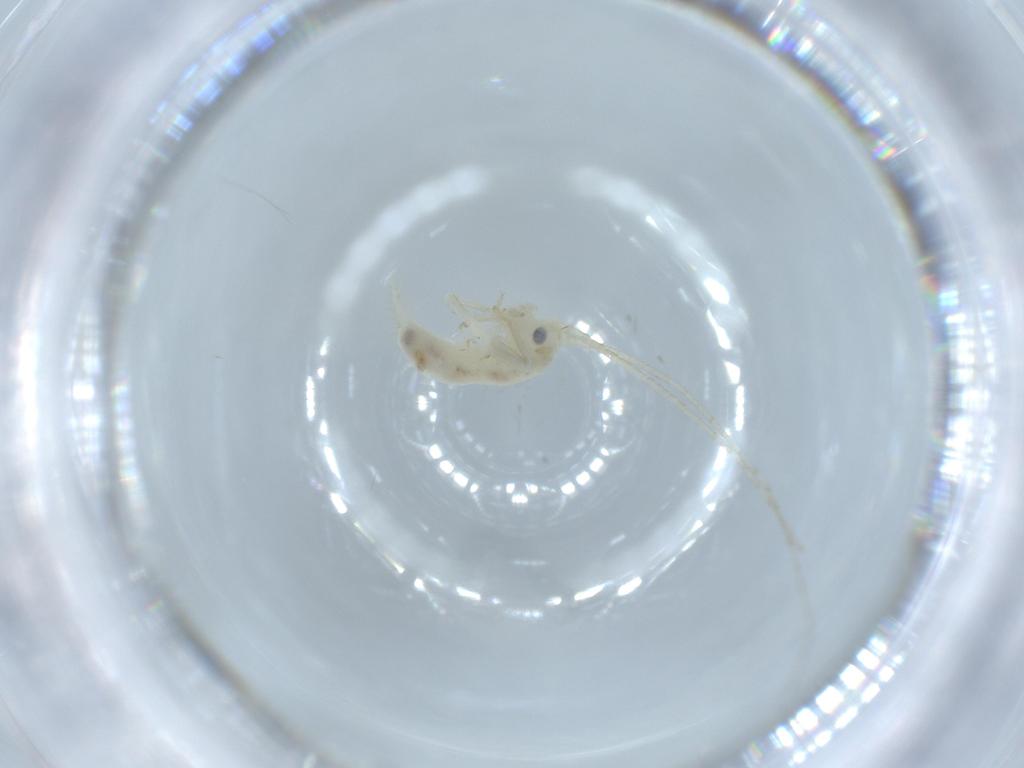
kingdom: Animalia
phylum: Arthropoda
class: Insecta
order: Orthoptera
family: Trigonidiidae
